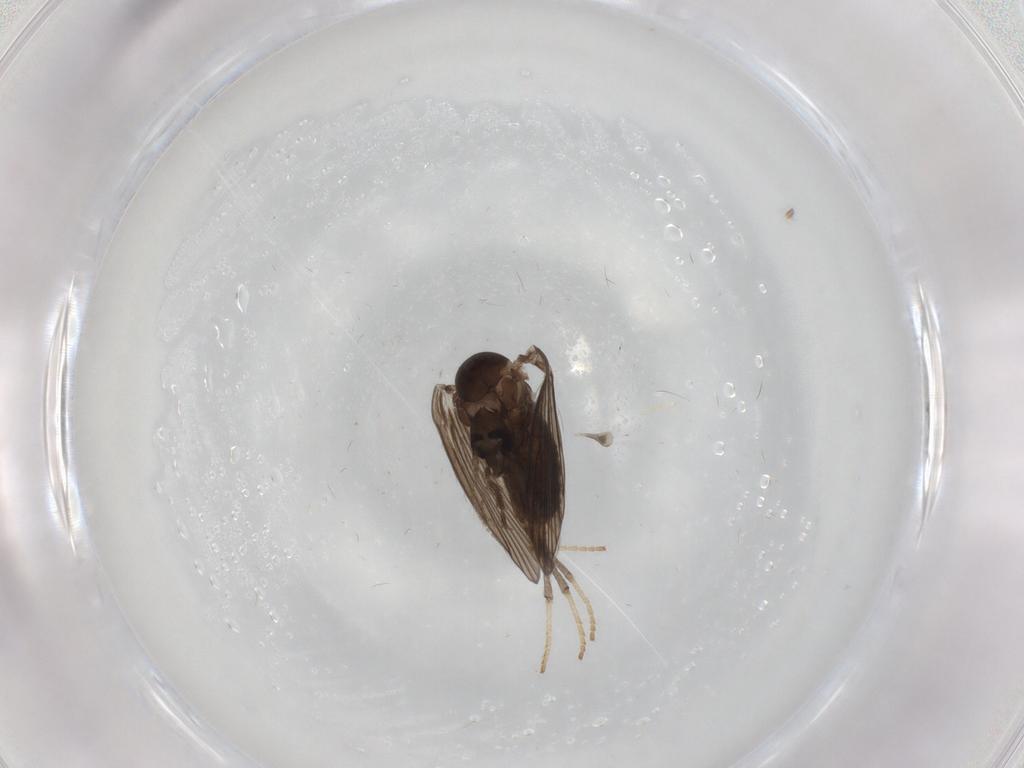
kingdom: Animalia
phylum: Arthropoda
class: Insecta
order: Diptera
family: Psychodidae
